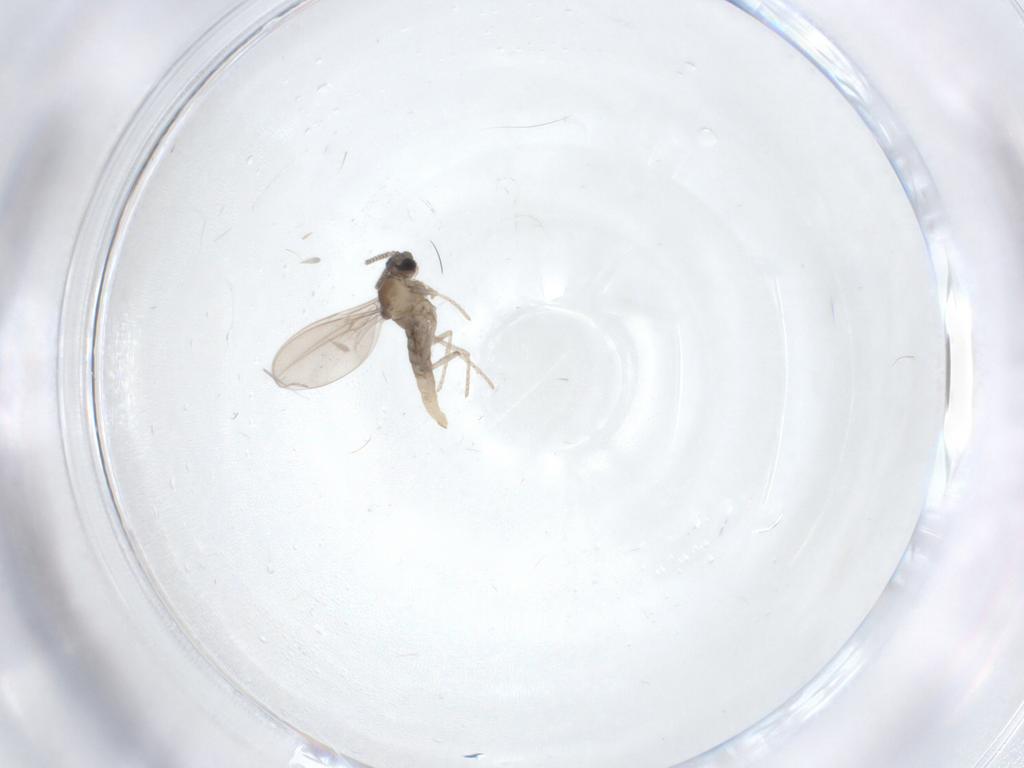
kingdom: Animalia
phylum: Arthropoda
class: Insecta
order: Diptera
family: Cecidomyiidae
